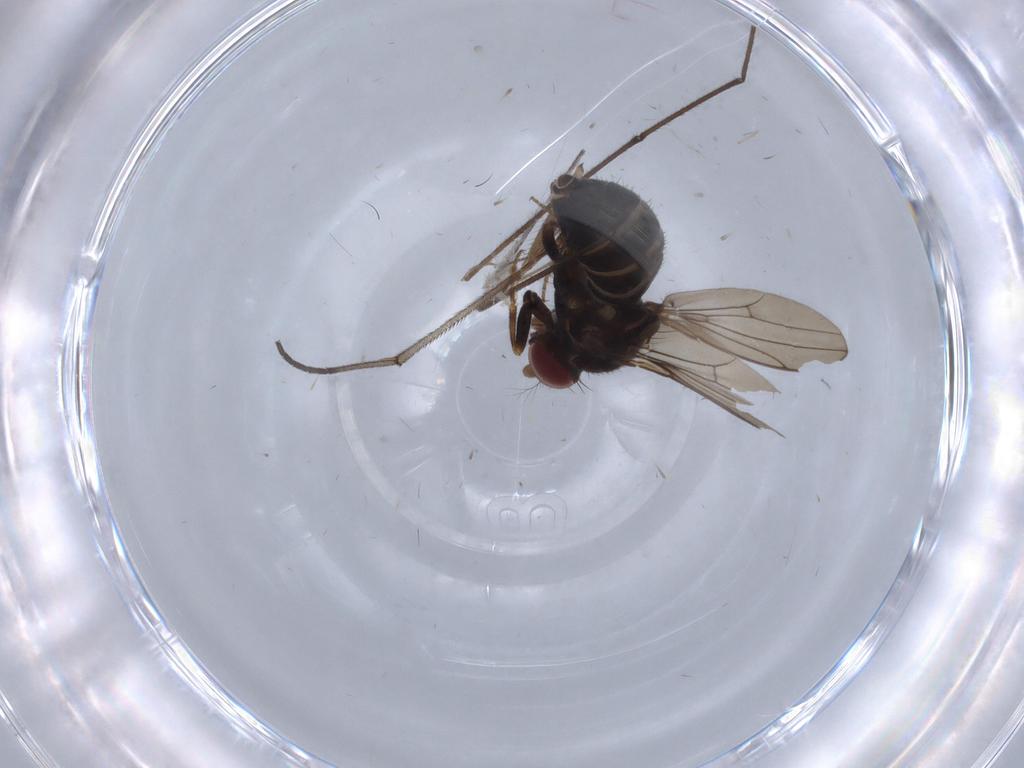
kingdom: Animalia
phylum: Arthropoda
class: Insecta
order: Diptera
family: Ephydridae
